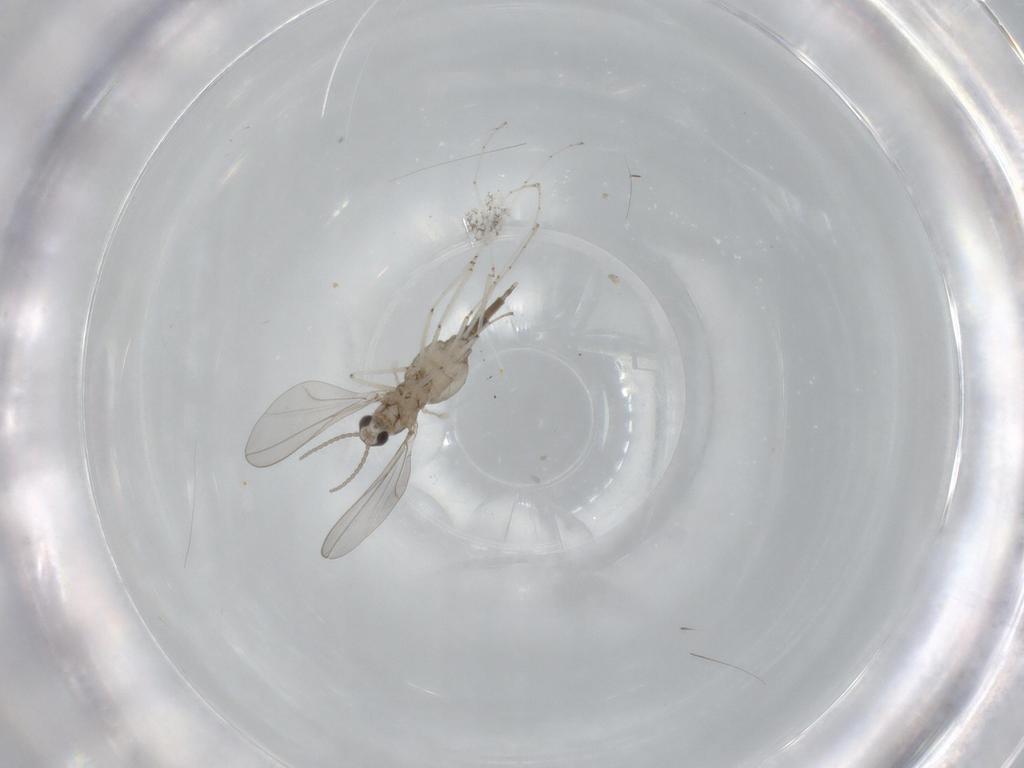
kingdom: Animalia
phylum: Arthropoda
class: Insecta
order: Diptera
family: Cecidomyiidae
